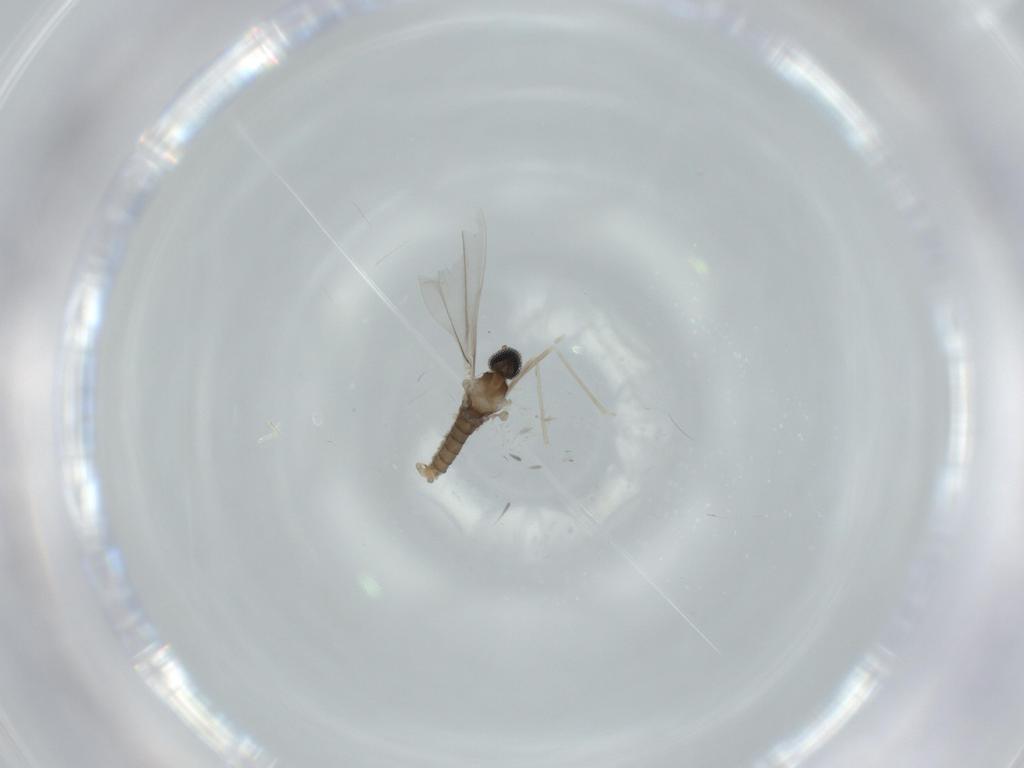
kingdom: Animalia
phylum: Arthropoda
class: Insecta
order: Diptera
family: Cecidomyiidae
